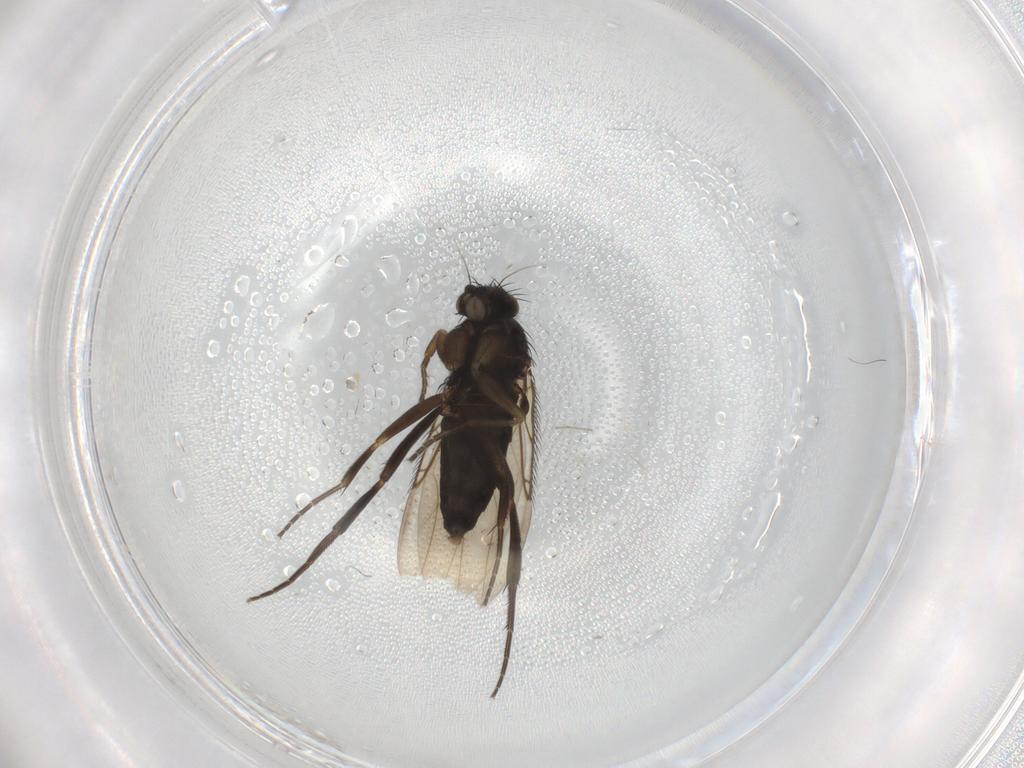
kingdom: Animalia
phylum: Arthropoda
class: Insecta
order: Diptera
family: Phoridae
